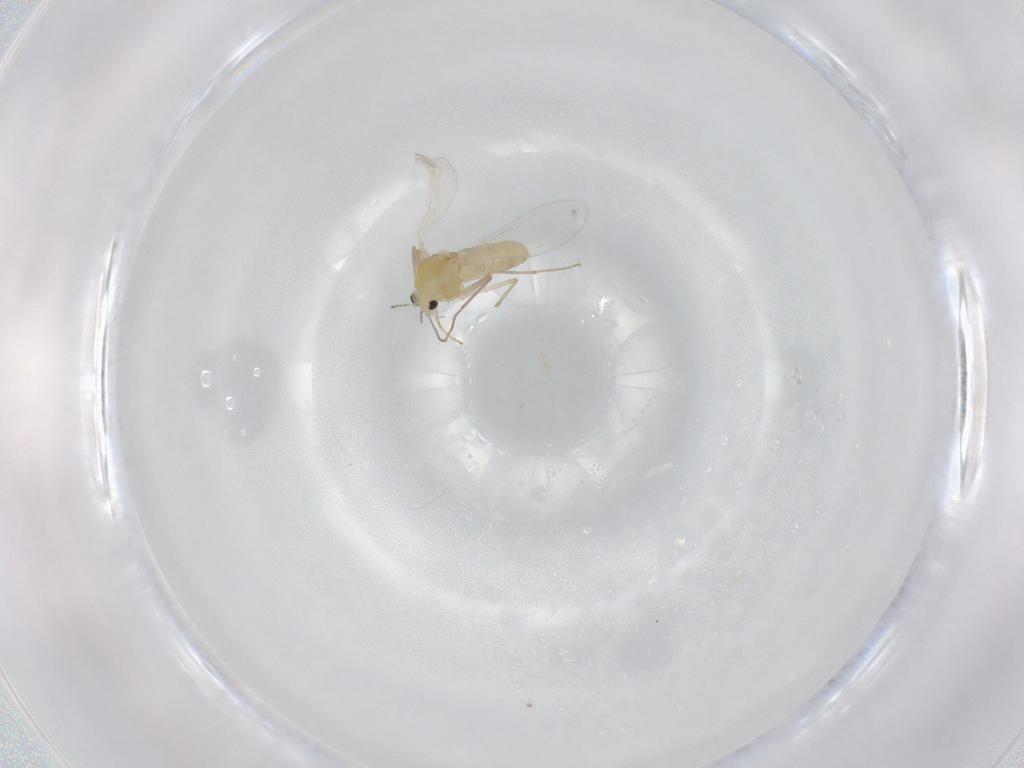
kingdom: Animalia
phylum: Arthropoda
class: Insecta
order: Diptera
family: Chironomidae
